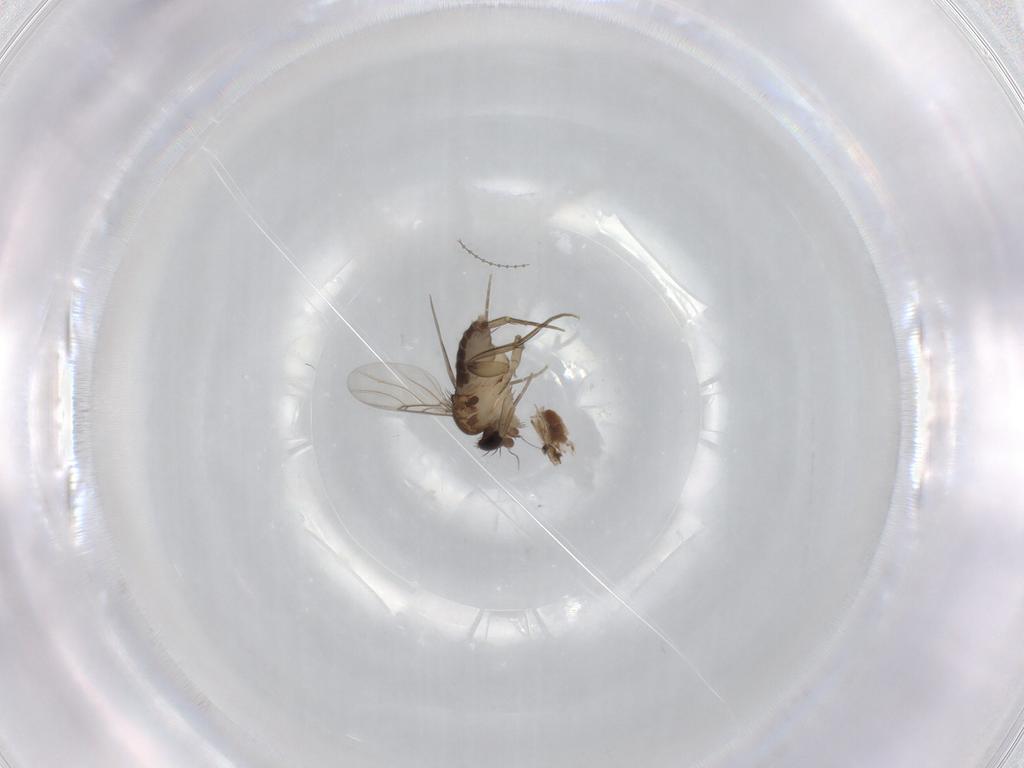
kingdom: Animalia
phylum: Arthropoda
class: Insecta
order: Diptera
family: Phoridae
